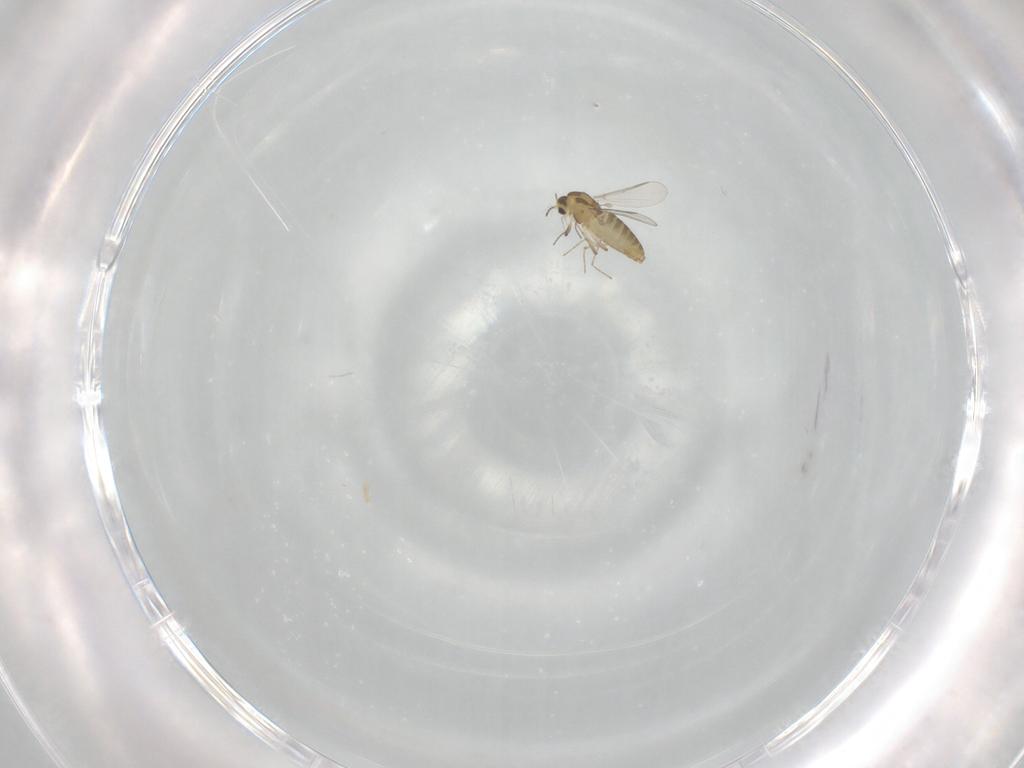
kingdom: Animalia
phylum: Arthropoda
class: Insecta
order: Diptera
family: Chironomidae
